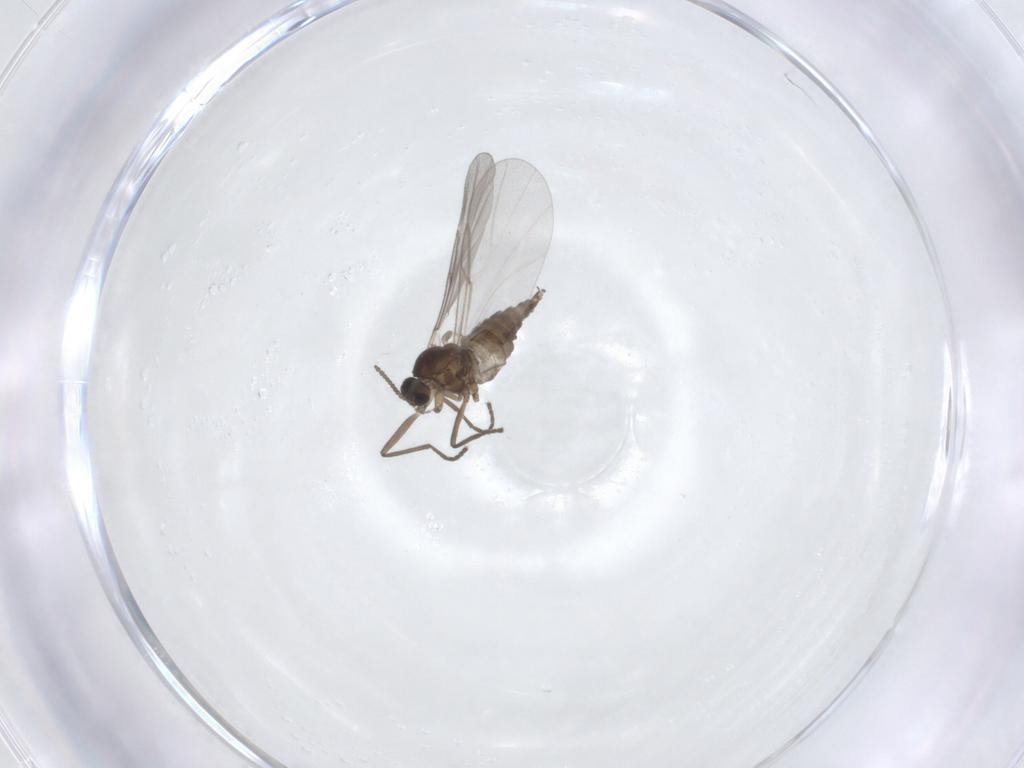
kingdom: Animalia
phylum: Arthropoda
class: Insecta
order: Diptera
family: Cecidomyiidae
